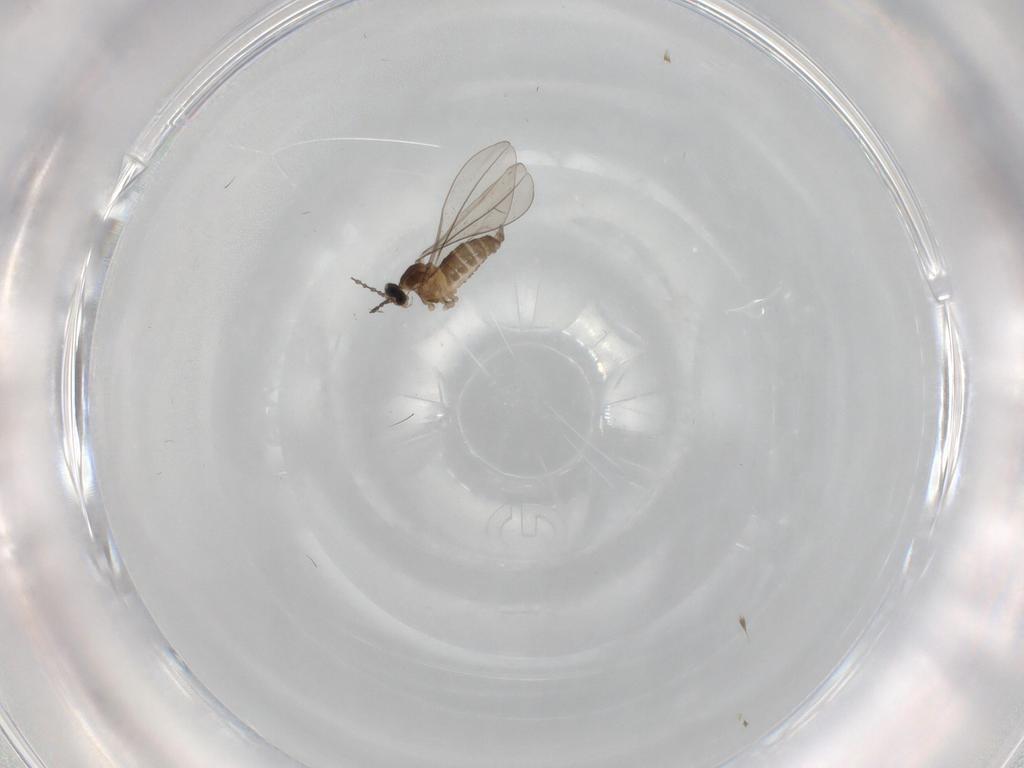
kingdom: Animalia
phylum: Arthropoda
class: Insecta
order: Diptera
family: Cecidomyiidae
